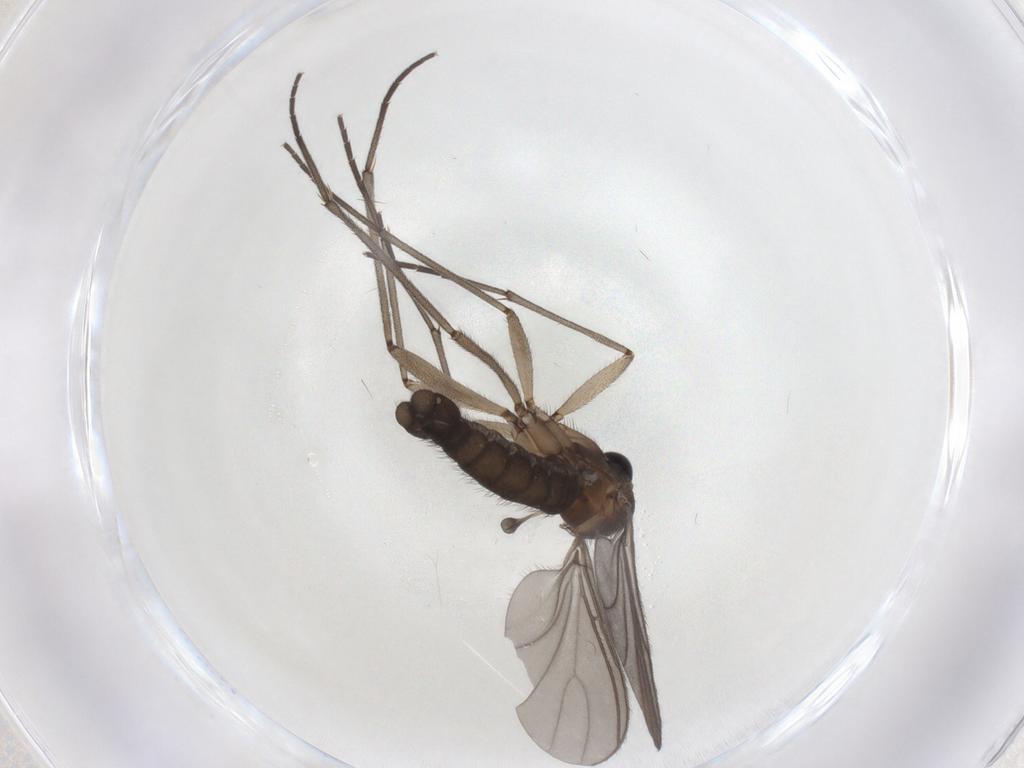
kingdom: Animalia
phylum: Arthropoda
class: Insecta
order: Diptera
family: Sciaridae
